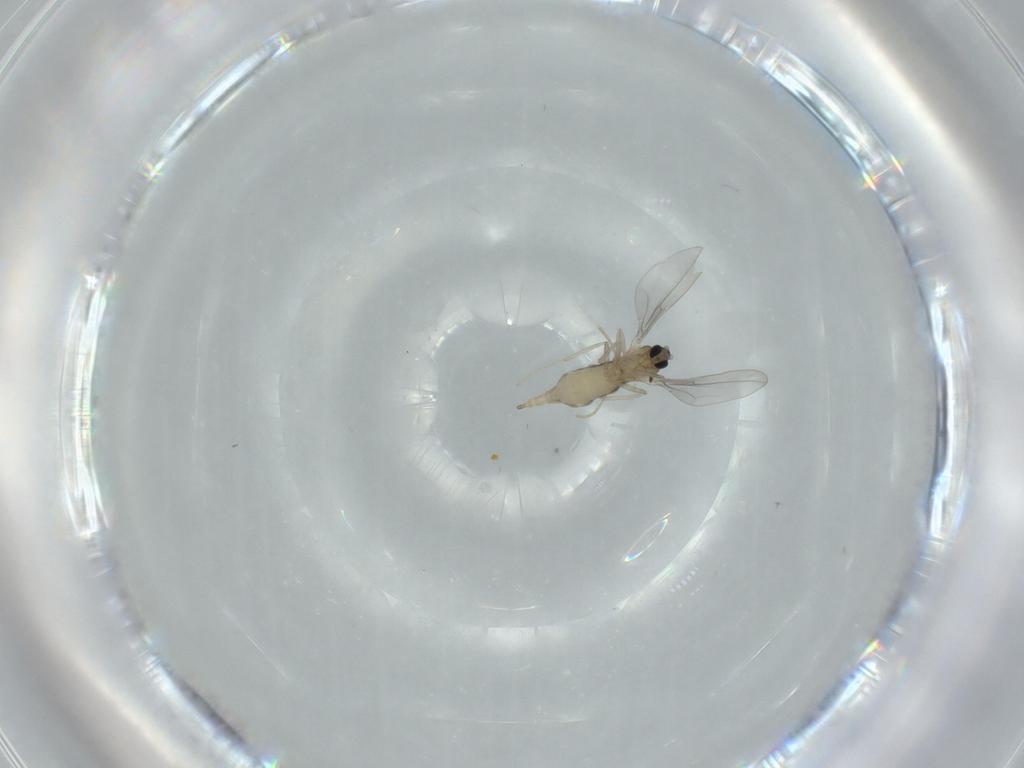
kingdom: Animalia
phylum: Arthropoda
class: Insecta
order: Diptera
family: Cecidomyiidae
